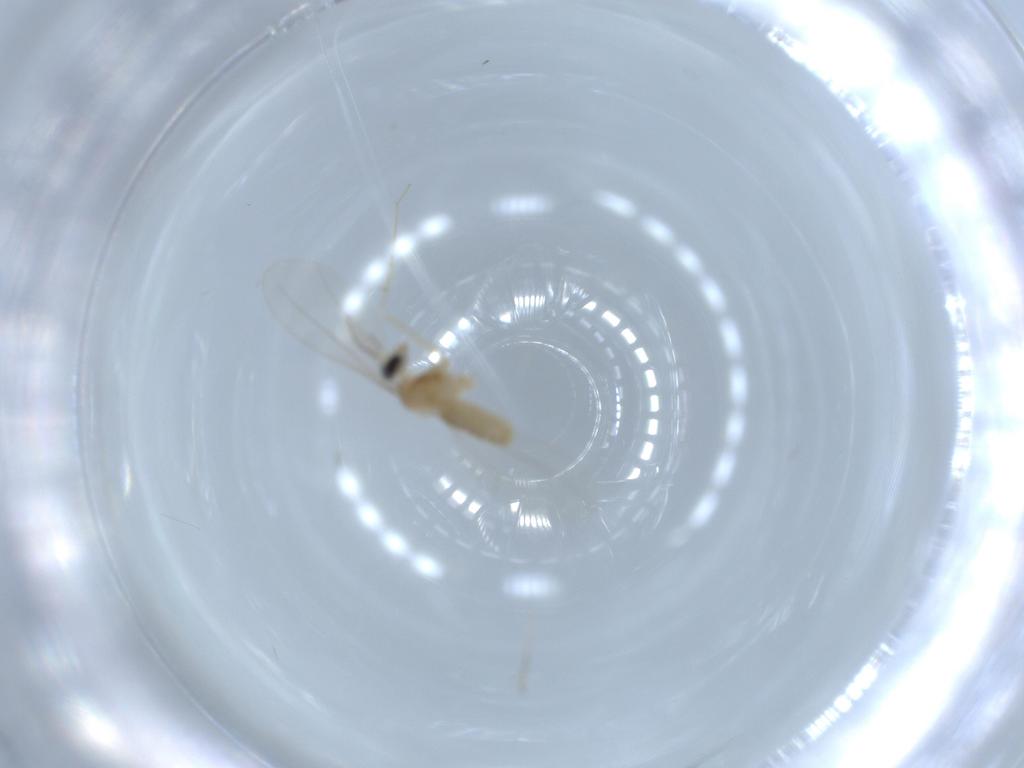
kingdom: Animalia
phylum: Arthropoda
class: Insecta
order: Diptera
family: Cecidomyiidae
